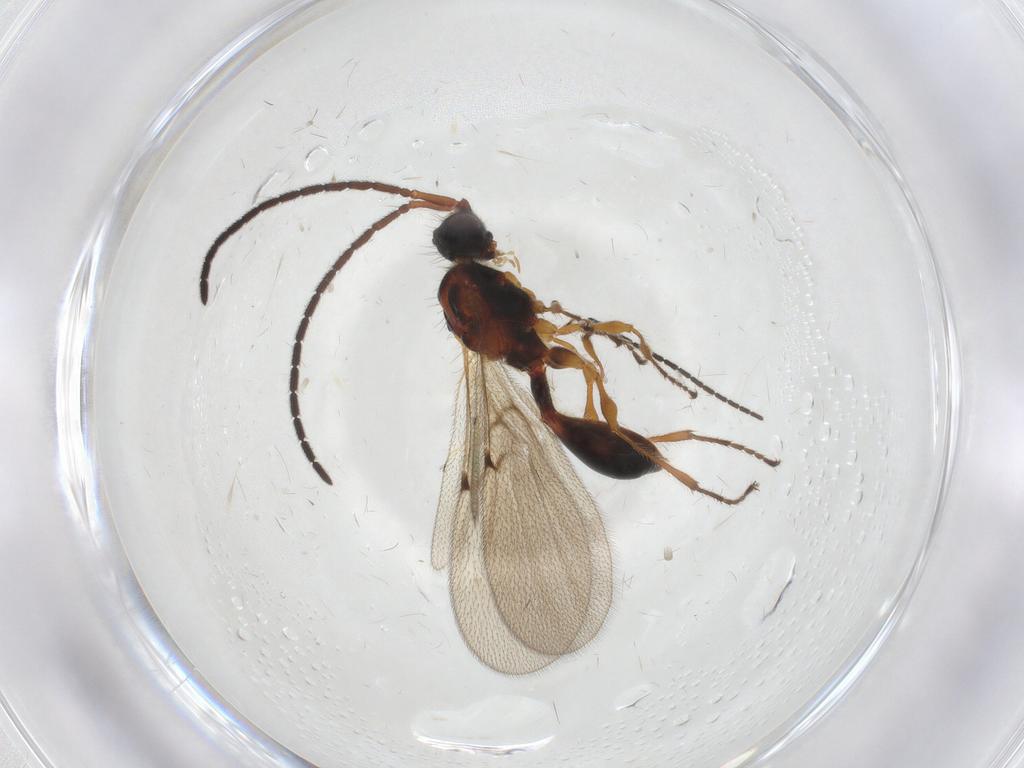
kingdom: Animalia
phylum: Arthropoda
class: Insecta
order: Hymenoptera
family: Diapriidae
